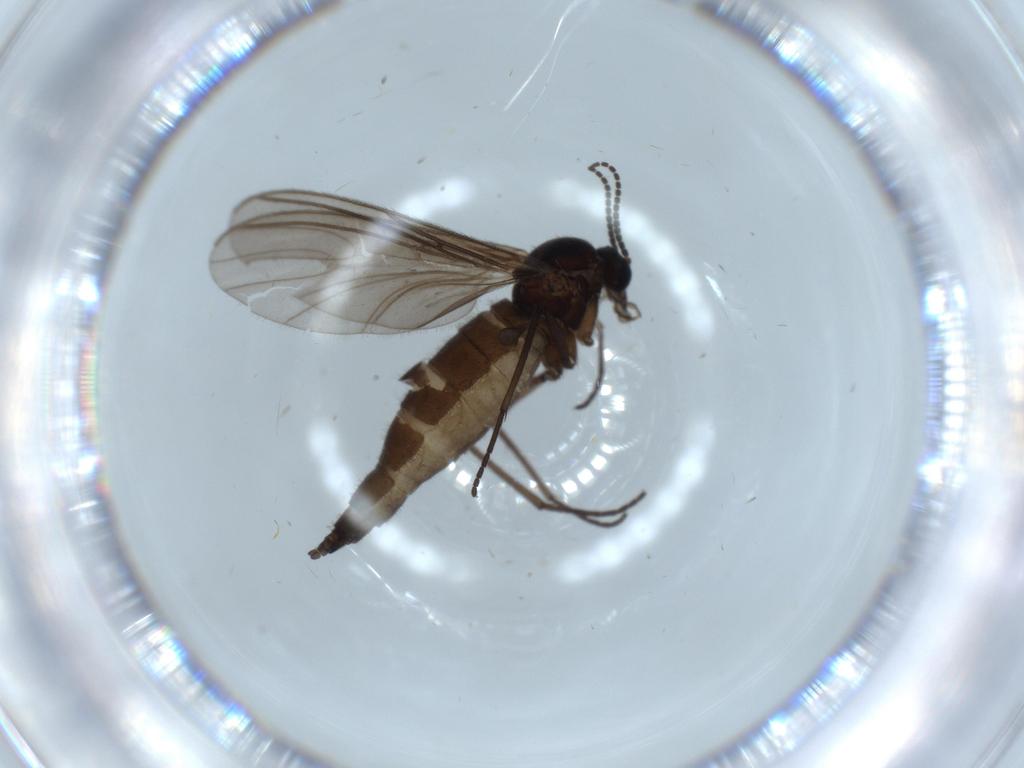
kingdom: Animalia
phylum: Arthropoda
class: Insecta
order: Diptera
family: Sciaridae
